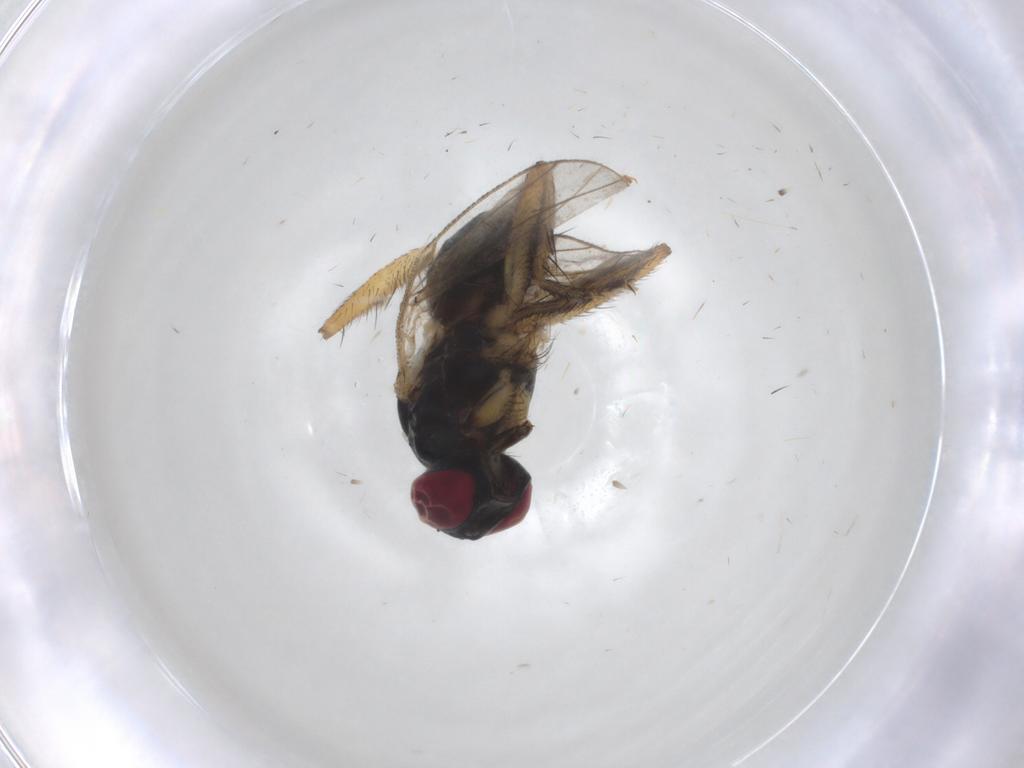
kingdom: Animalia
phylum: Arthropoda
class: Insecta
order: Diptera
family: Muscidae
